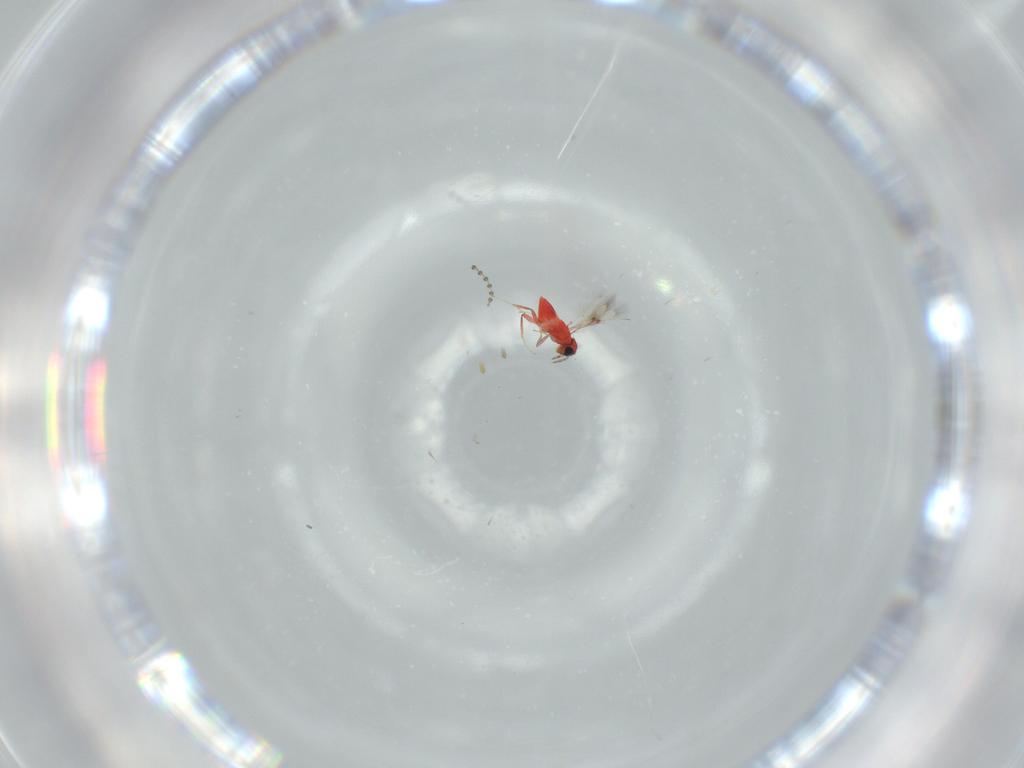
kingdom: Animalia
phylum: Arthropoda
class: Insecta
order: Hymenoptera
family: Trichogrammatidae
